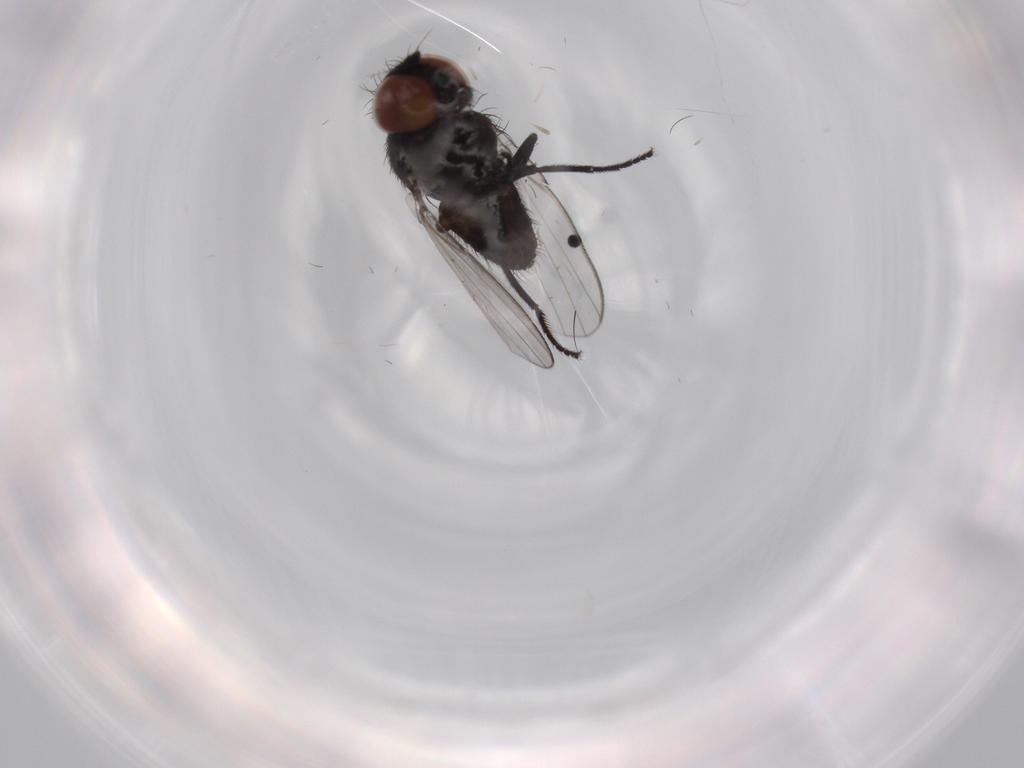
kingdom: Animalia
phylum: Arthropoda
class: Insecta
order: Diptera
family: Milichiidae
